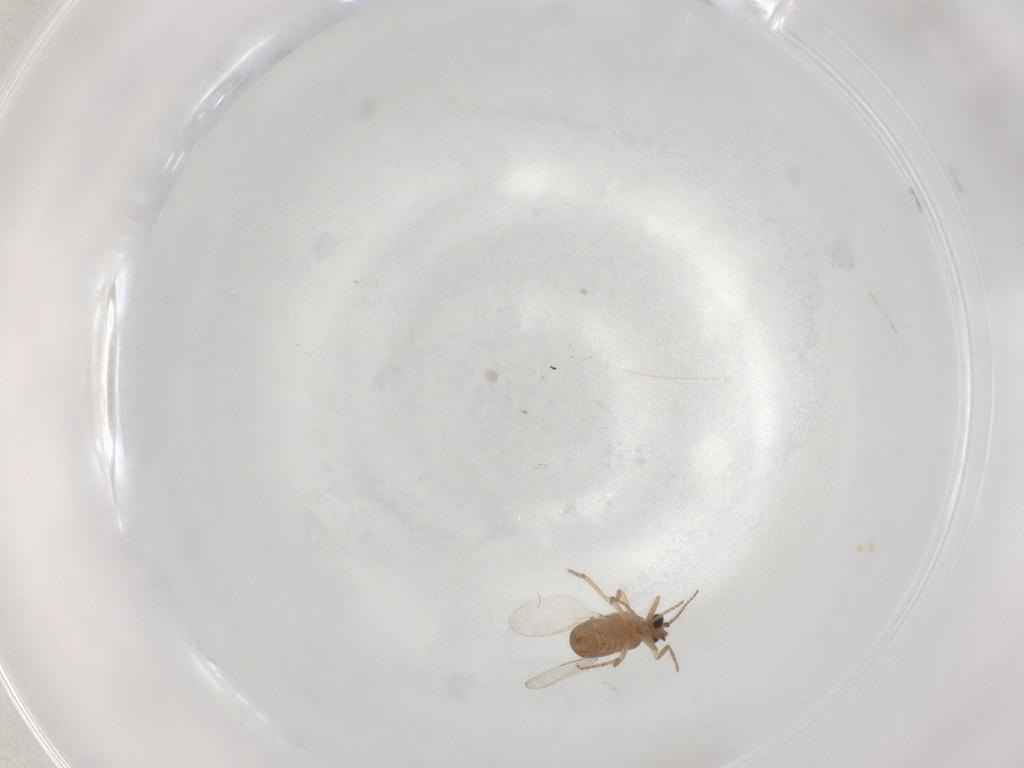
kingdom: Animalia
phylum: Arthropoda
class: Insecta
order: Diptera
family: Ceratopogonidae
